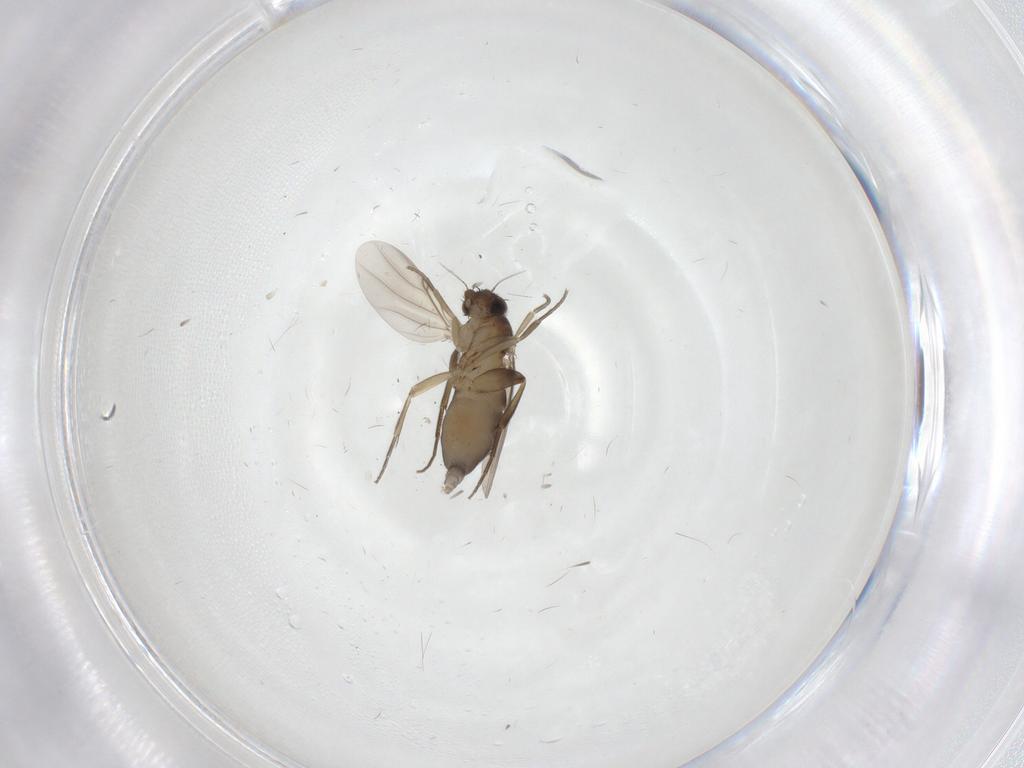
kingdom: Animalia
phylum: Arthropoda
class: Insecta
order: Diptera
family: Phoridae
